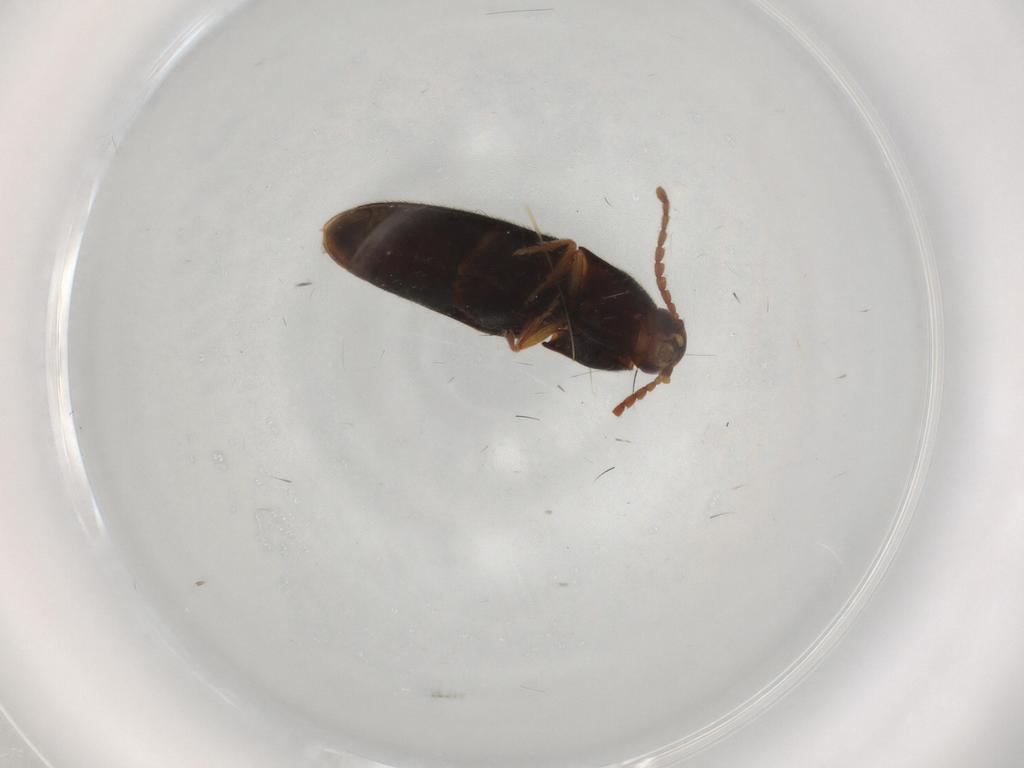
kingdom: Animalia
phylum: Arthropoda
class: Insecta
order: Coleoptera
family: Elateridae
